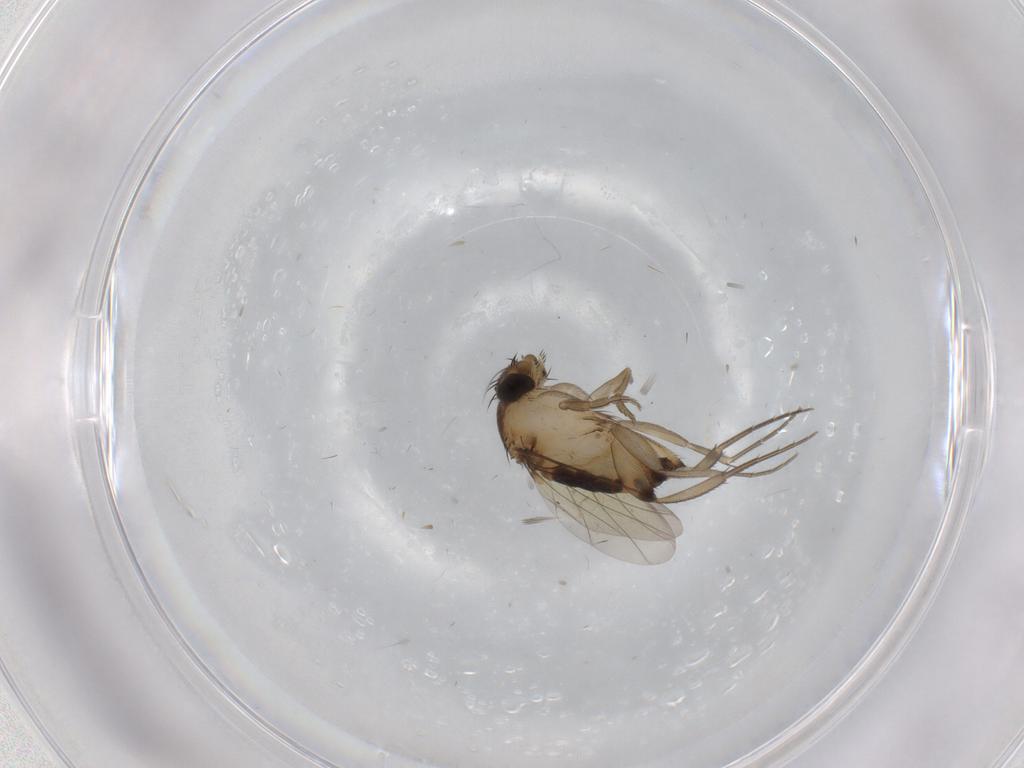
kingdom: Animalia
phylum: Arthropoda
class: Insecta
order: Diptera
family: Phoridae
